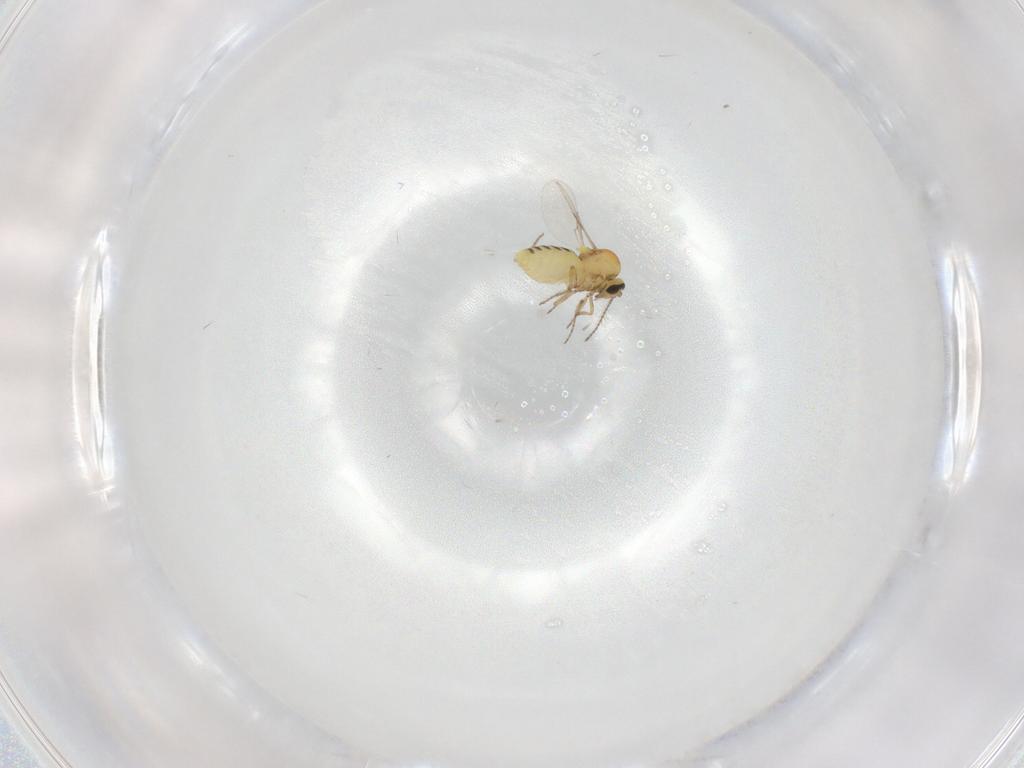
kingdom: Animalia
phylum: Arthropoda
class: Insecta
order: Diptera
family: Ceratopogonidae
